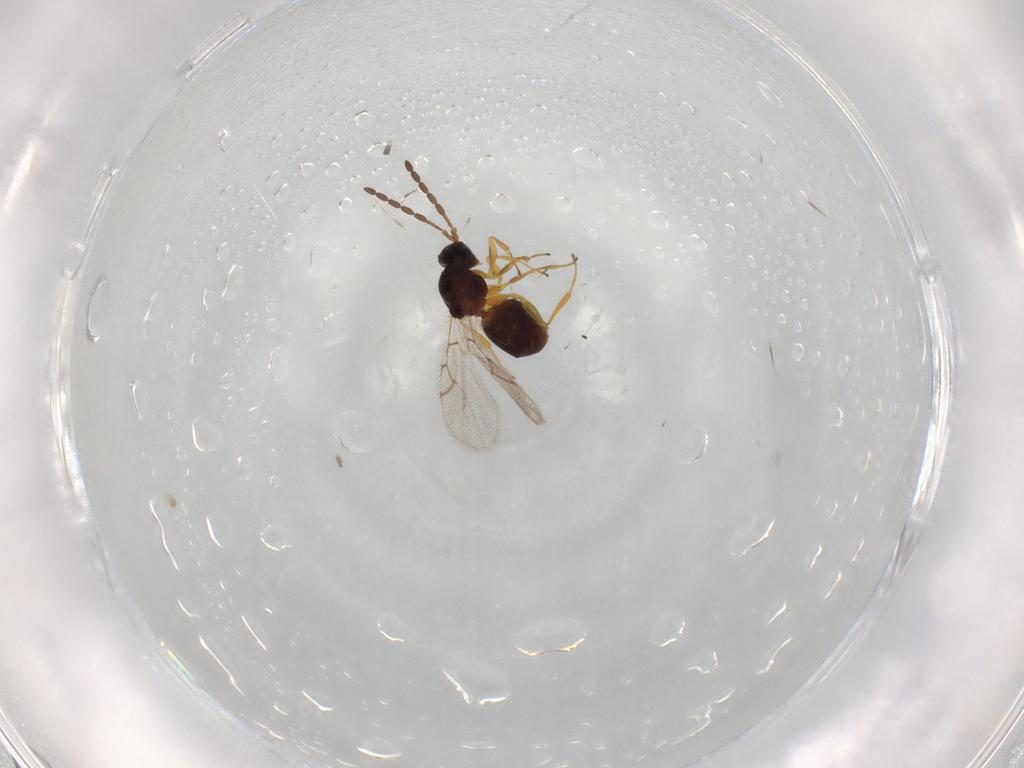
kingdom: Animalia
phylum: Arthropoda
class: Insecta
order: Hymenoptera
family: Figitidae
